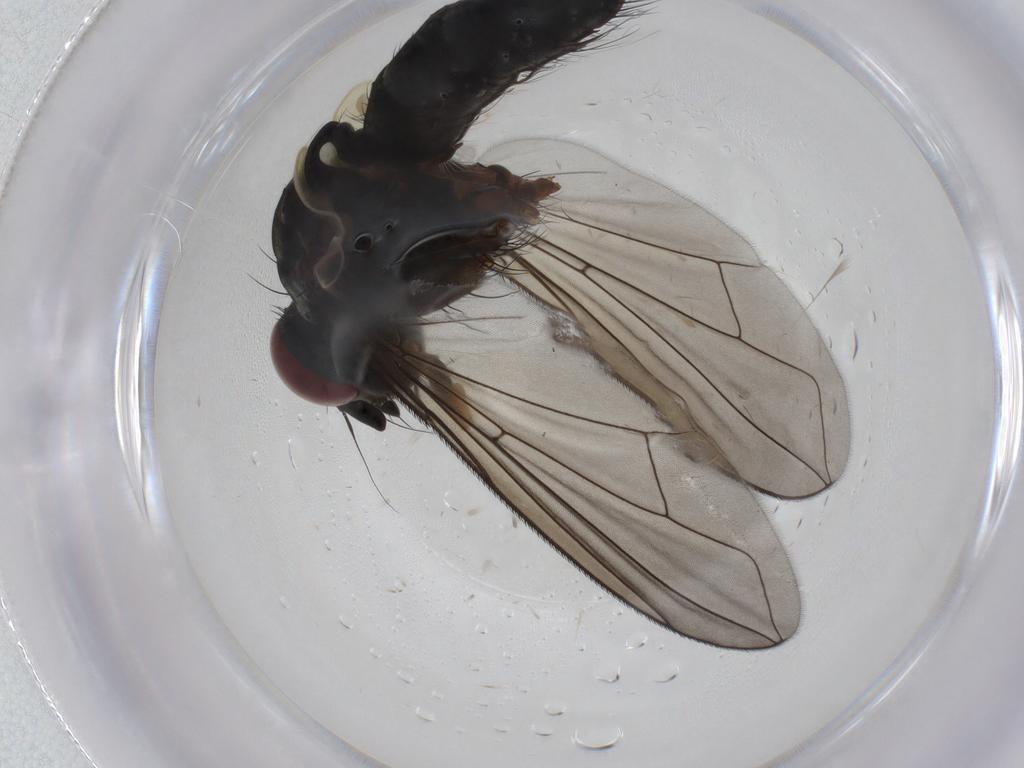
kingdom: Animalia
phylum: Arthropoda
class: Insecta
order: Diptera
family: Tachinidae
